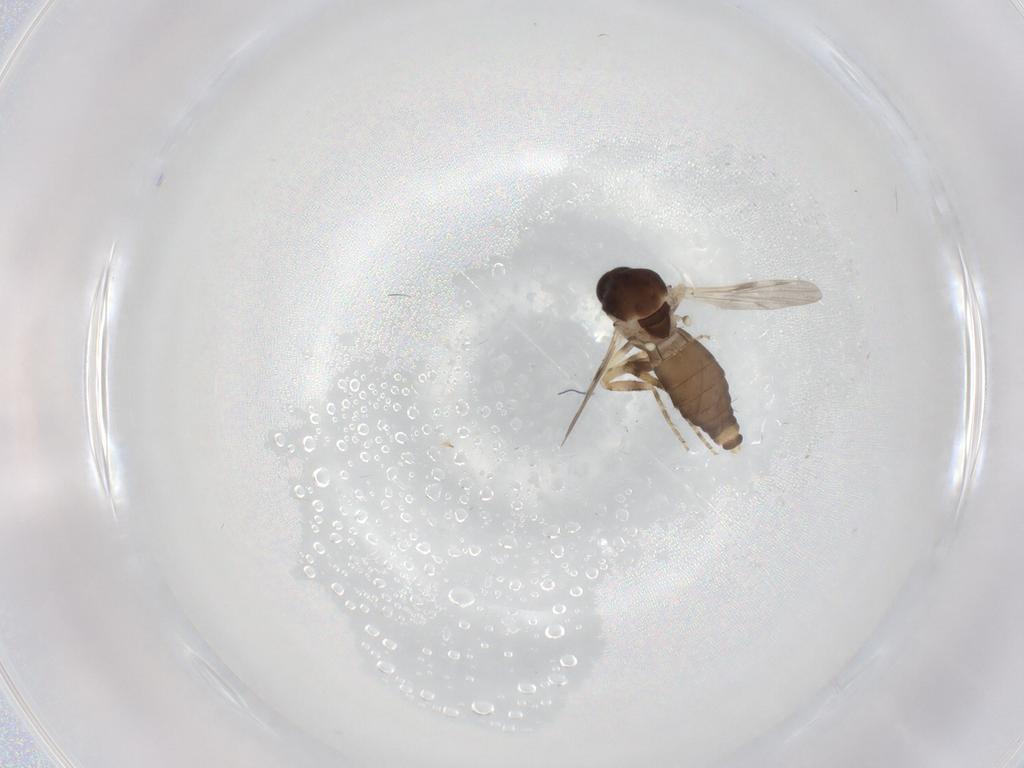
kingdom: Animalia
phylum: Arthropoda
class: Insecta
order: Diptera
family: Ceratopogonidae
